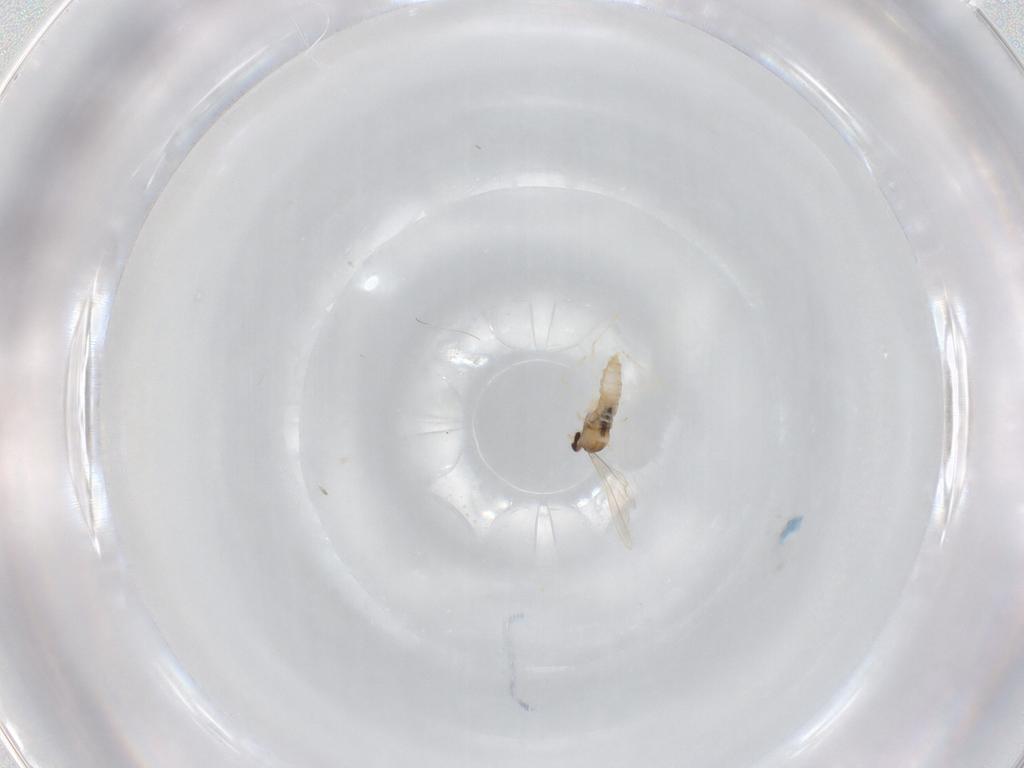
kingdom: Animalia
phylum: Arthropoda
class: Insecta
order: Diptera
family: Cecidomyiidae
